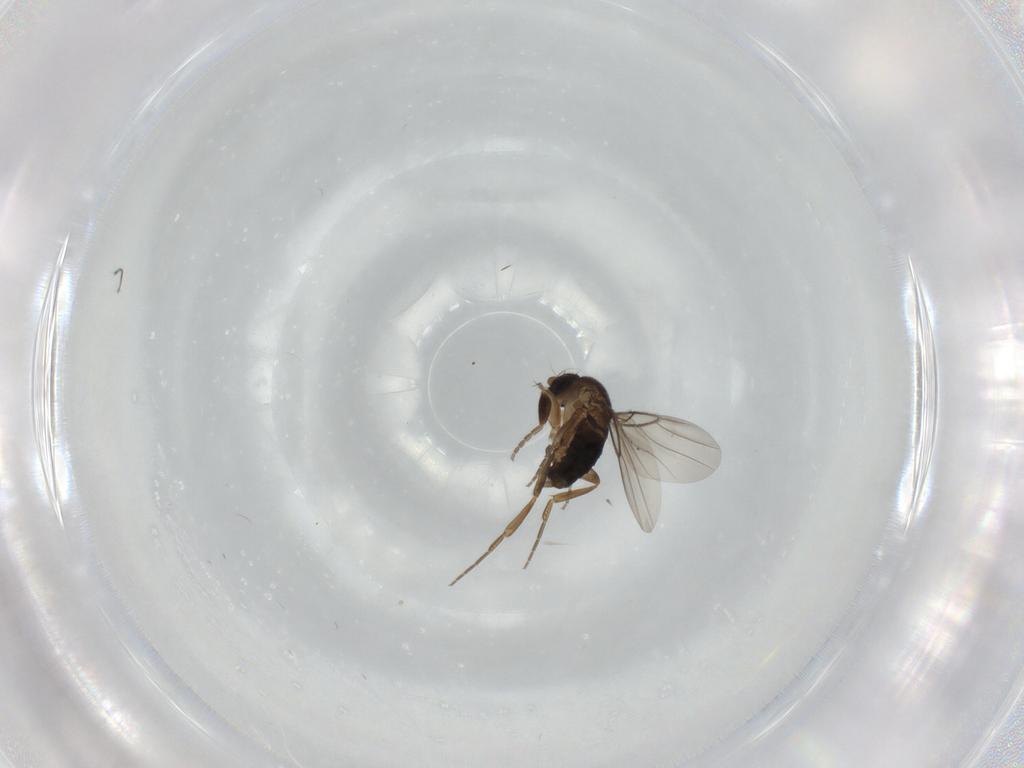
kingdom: Animalia
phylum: Arthropoda
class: Insecta
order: Diptera
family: Phoridae
